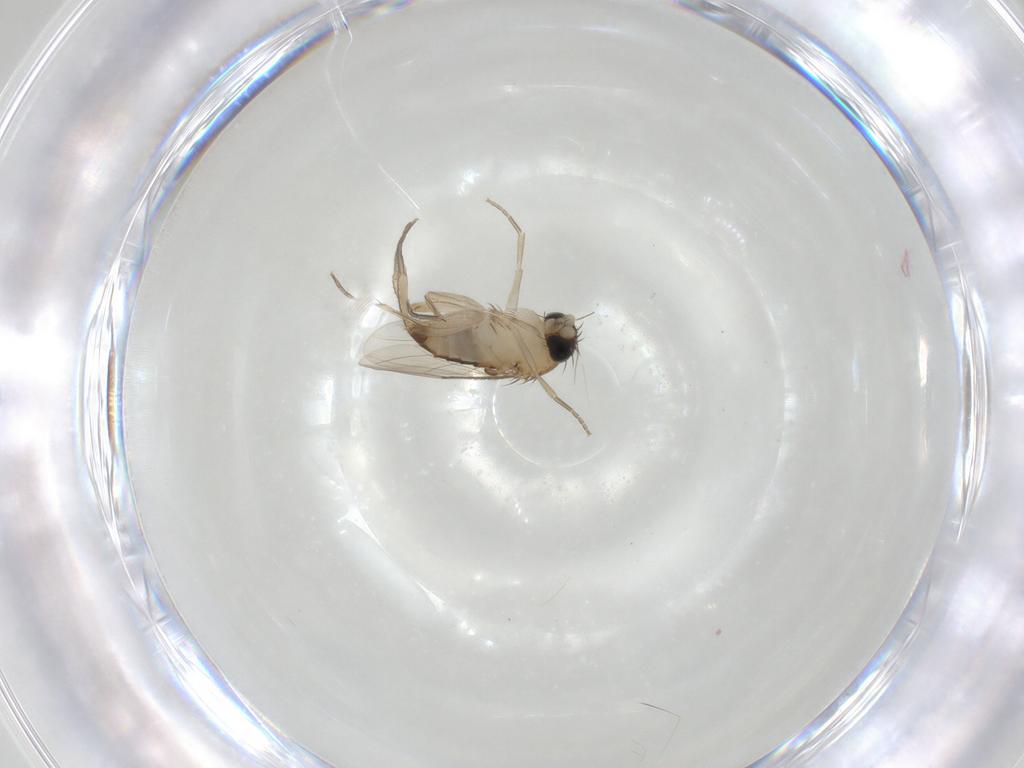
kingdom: Animalia
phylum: Arthropoda
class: Insecta
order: Diptera
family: Phoridae
